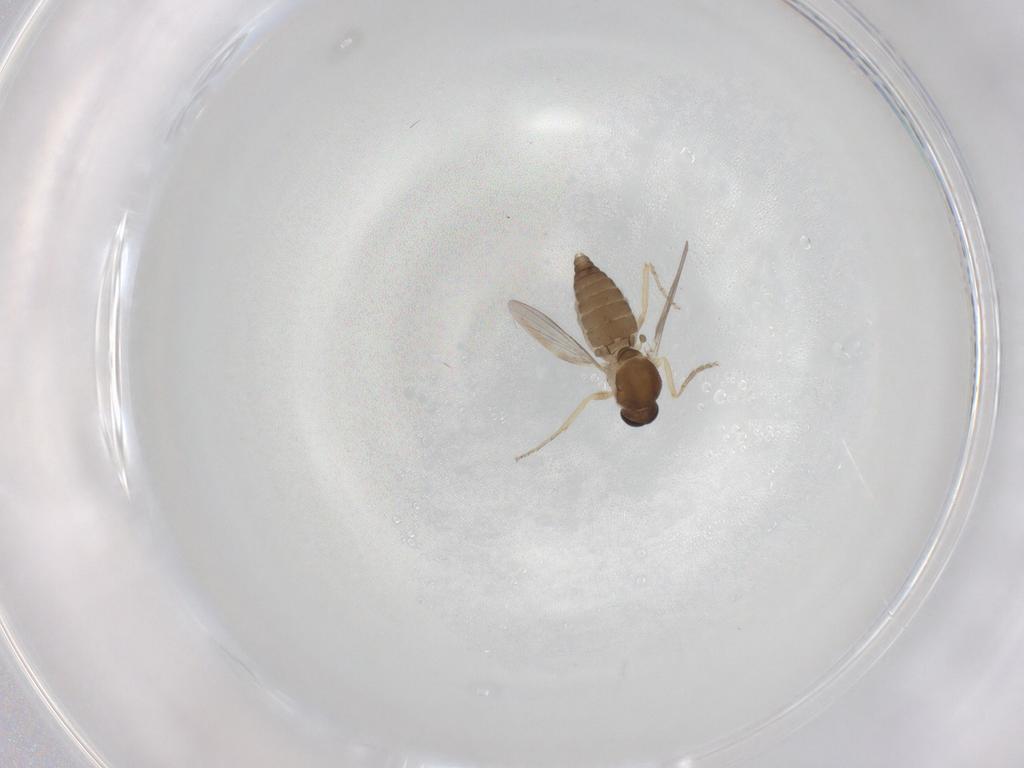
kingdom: Animalia
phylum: Arthropoda
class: Insecta
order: Diptera
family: Ceratopogonidae
